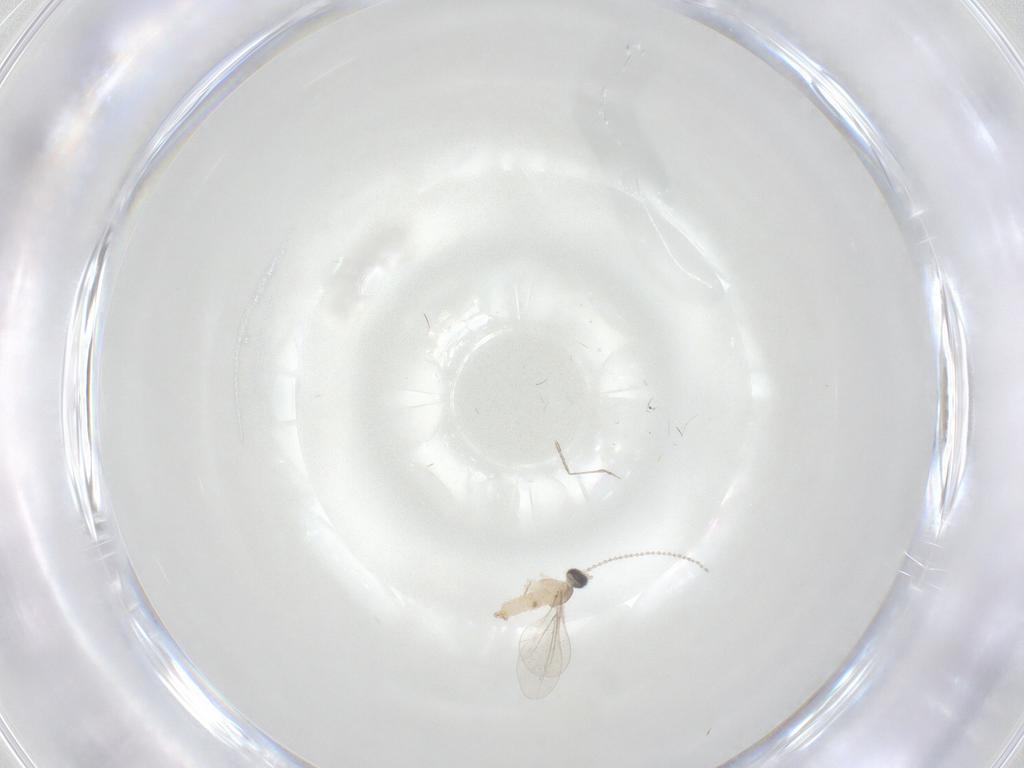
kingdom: Animalia
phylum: Arthropoda
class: Insecta
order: Diptera
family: Cecidomyiidae
